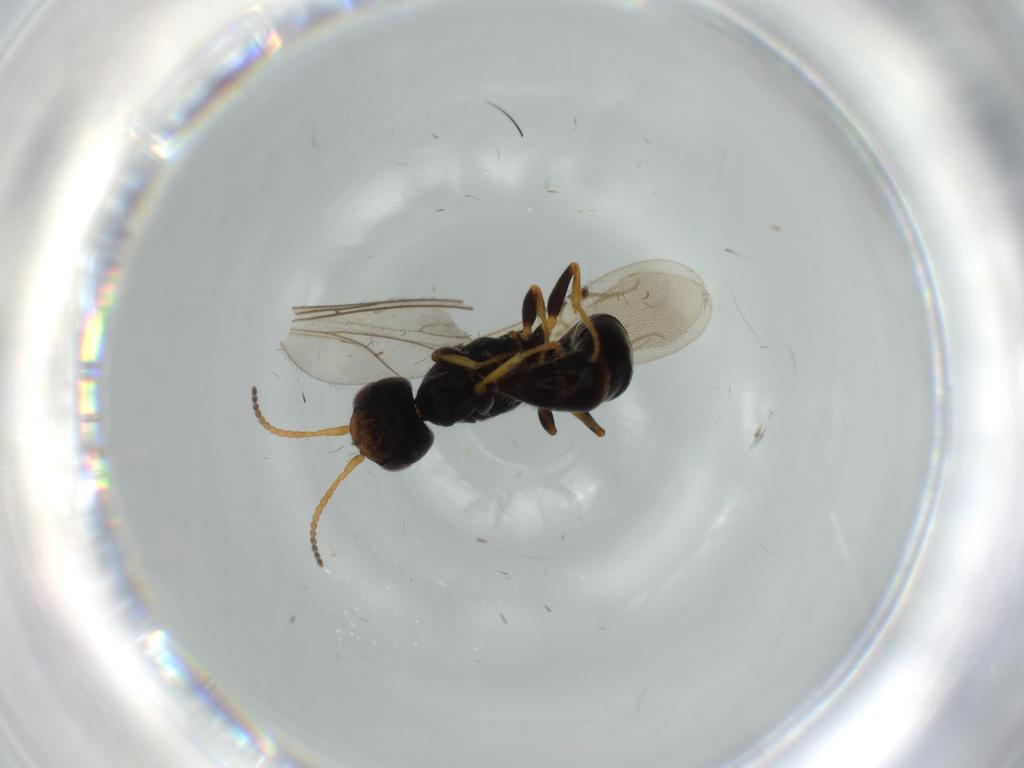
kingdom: Animalia
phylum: Arthropoda
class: Insecta
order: Hymenoptera
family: Bethylidae
